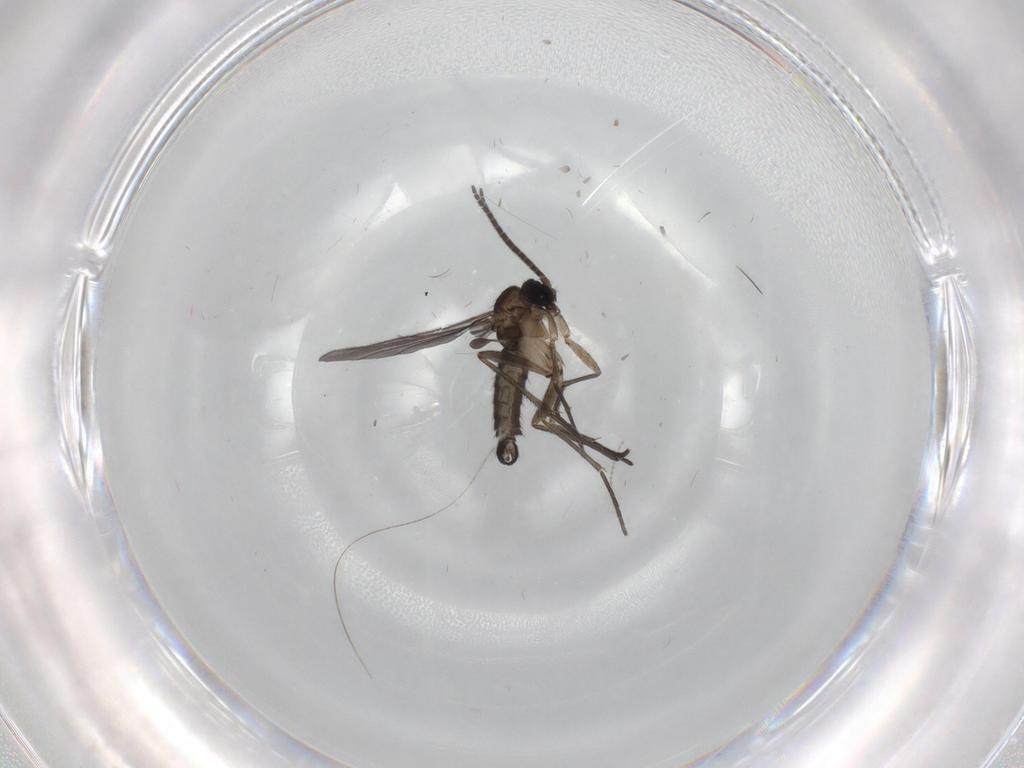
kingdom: Animalia
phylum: Arthropoda
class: Insecta
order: Diptera
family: Sciaridae
